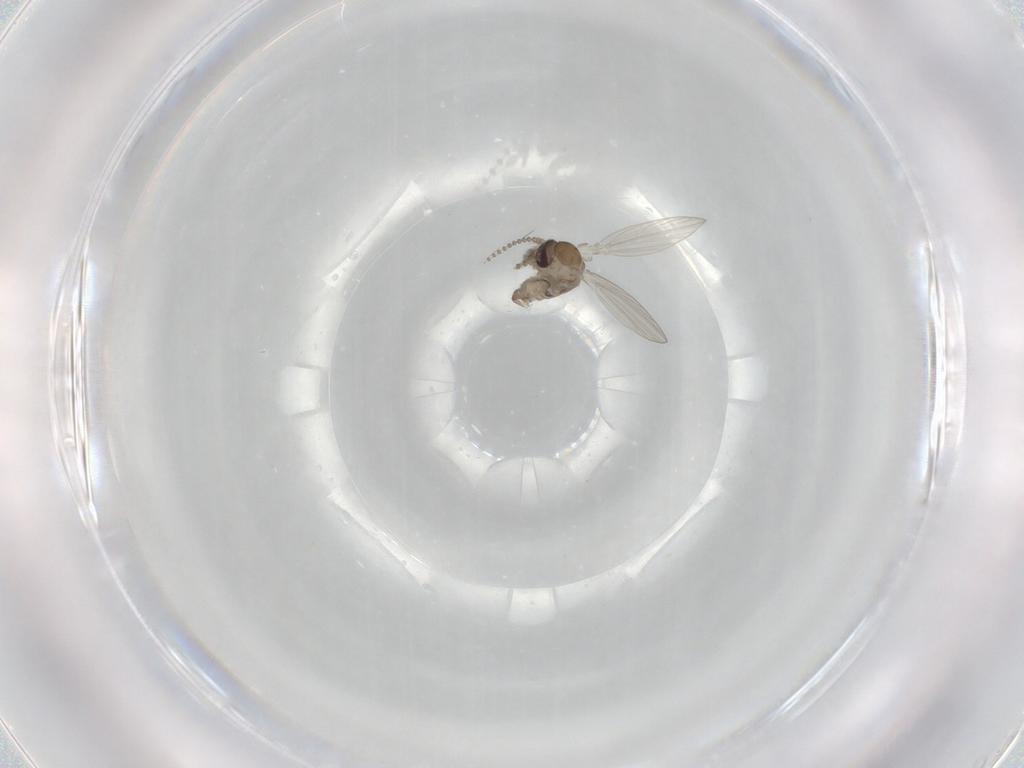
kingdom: Animalia
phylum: Arthropoda
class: Insecta
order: Diptera
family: Psychodidae
